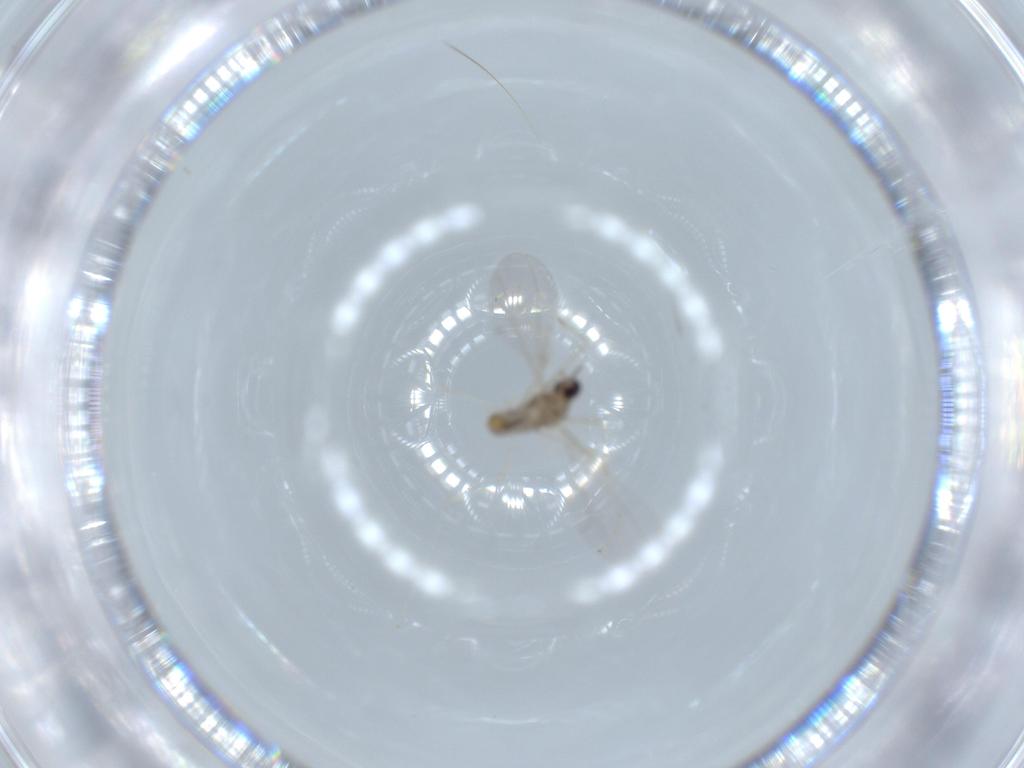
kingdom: Animalia
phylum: Arthropoda
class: Insecta
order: Diptera
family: Cecidomyiidae
